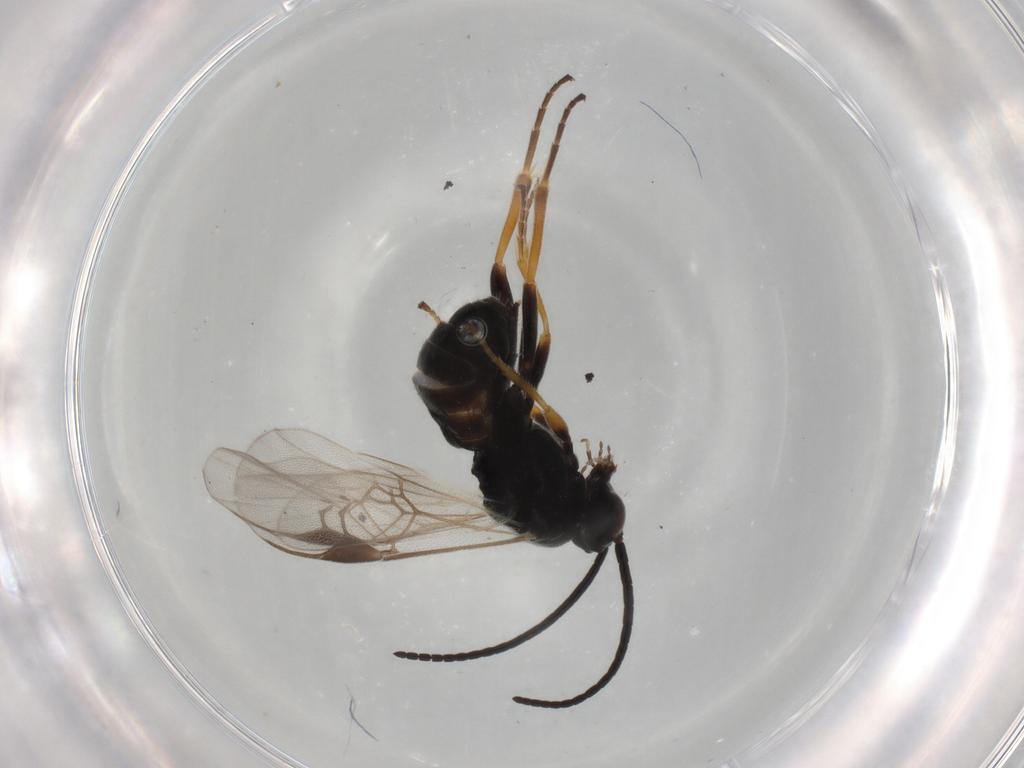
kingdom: Animalia
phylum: Arthropoda
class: Insecta
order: Hymenoptera
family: Braconidae
